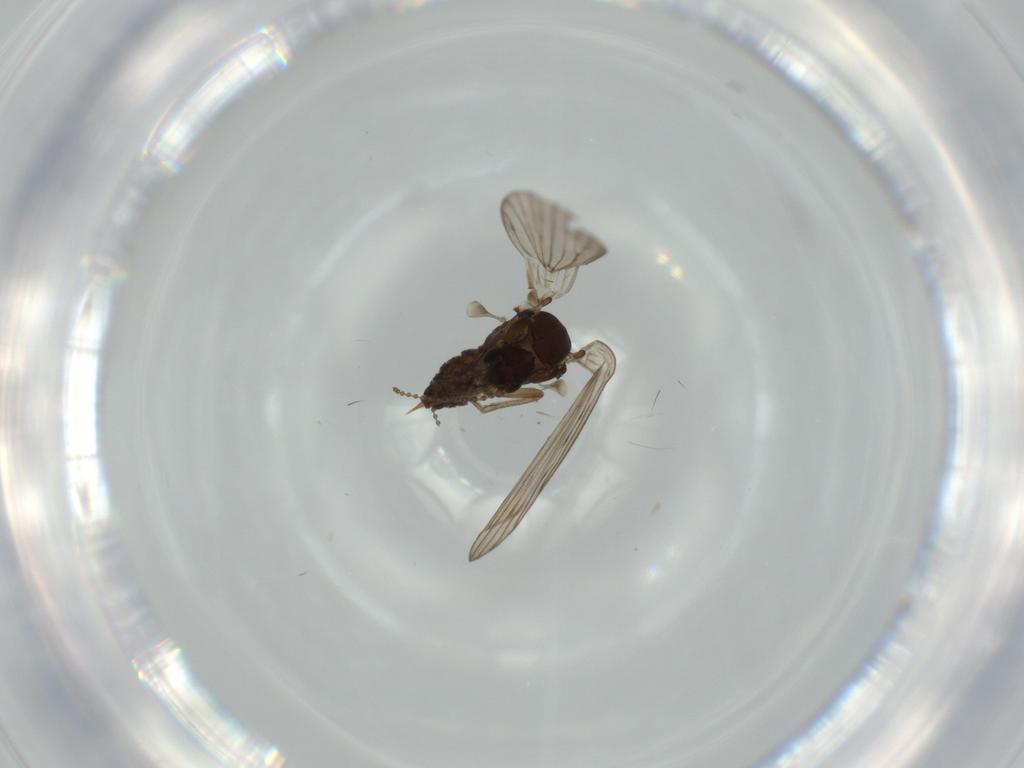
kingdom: Animalia
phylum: Arthropoda
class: Insecta
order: Diptera
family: Psychodidae
